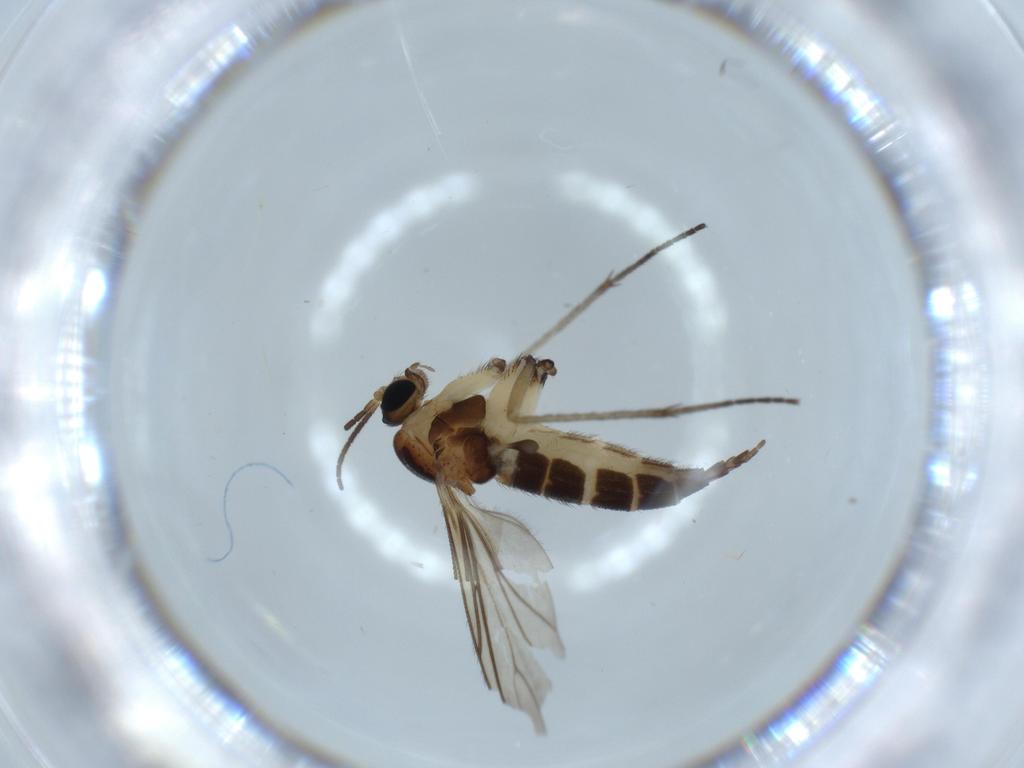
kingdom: Animalia
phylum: Arthropoda
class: Insecta
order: Diptera
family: Sciaridae
